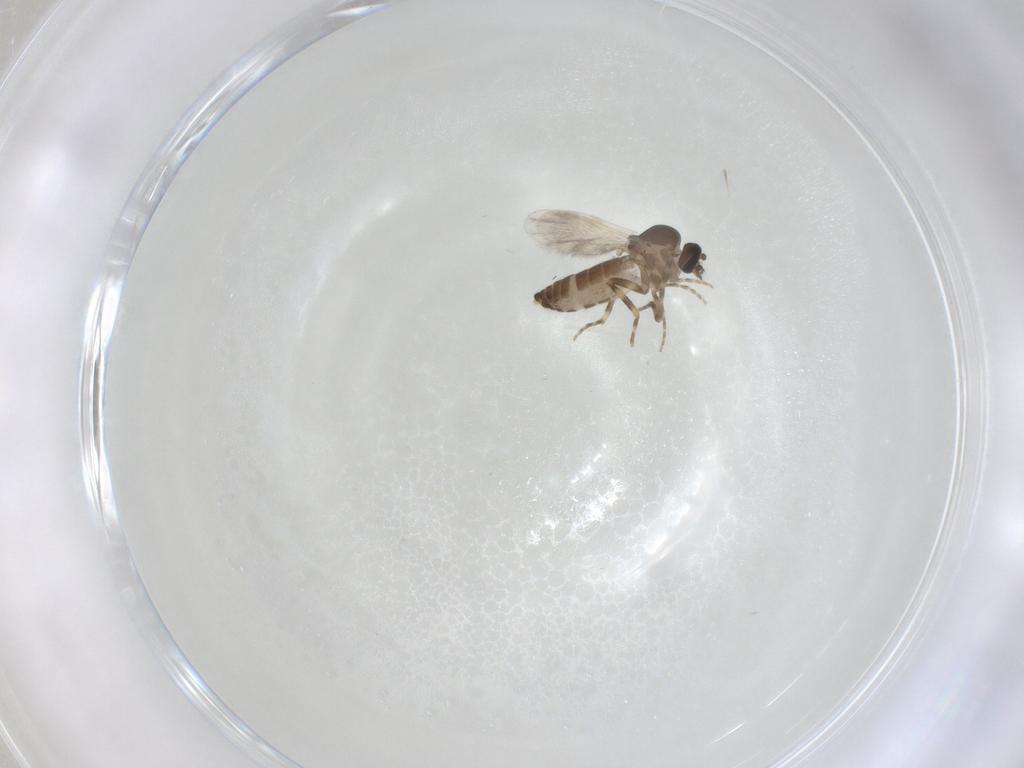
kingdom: Animalia
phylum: Arthropoda
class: Insecta
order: Diptera
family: Ceratopogonidae
